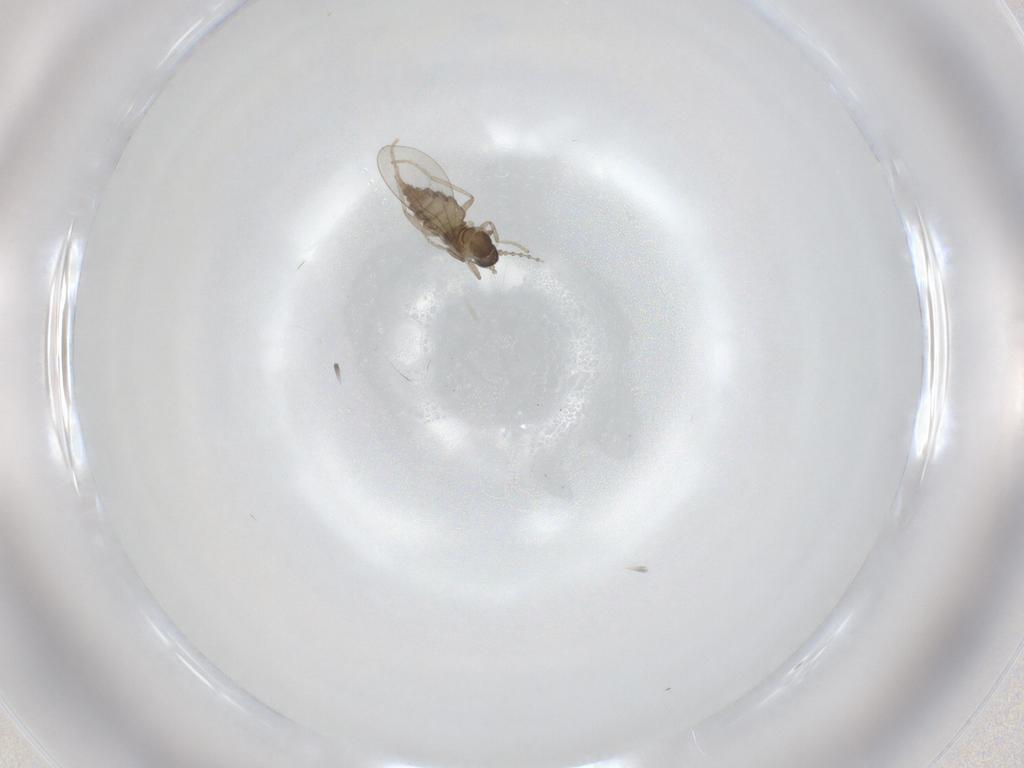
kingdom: Animalia
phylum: Arthropoda
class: Insecta
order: Diptera
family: Cecidomyiidae
